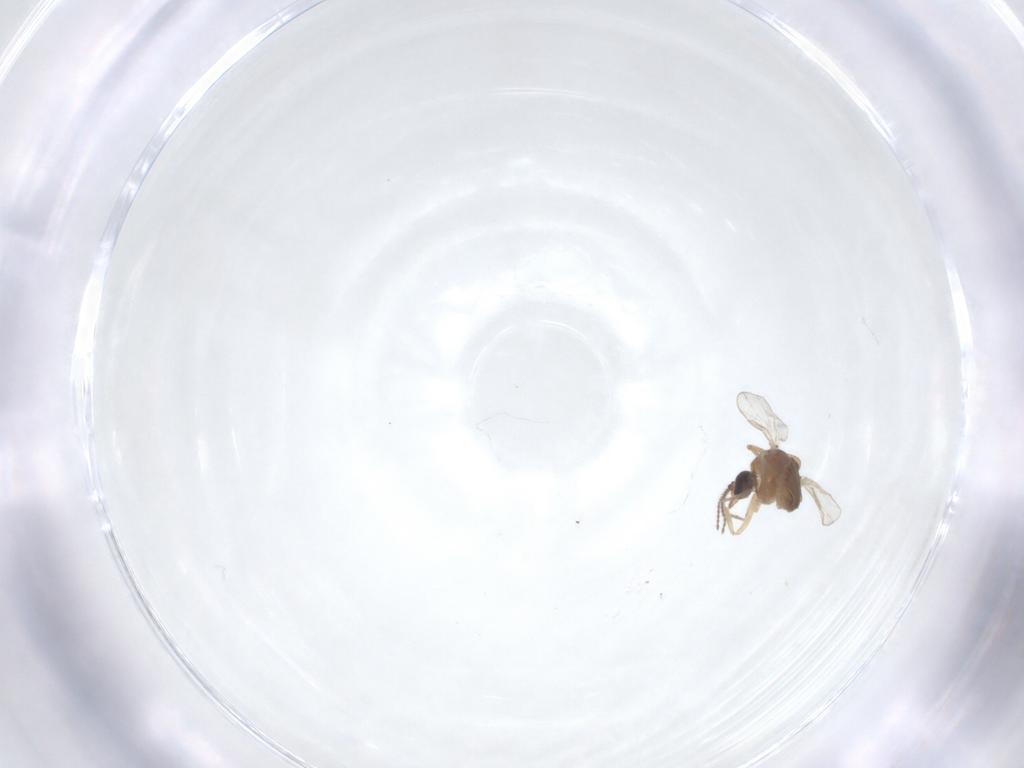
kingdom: Animalia
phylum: Arthropoda
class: Insecta
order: Diptera
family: Ceratopogonidae
